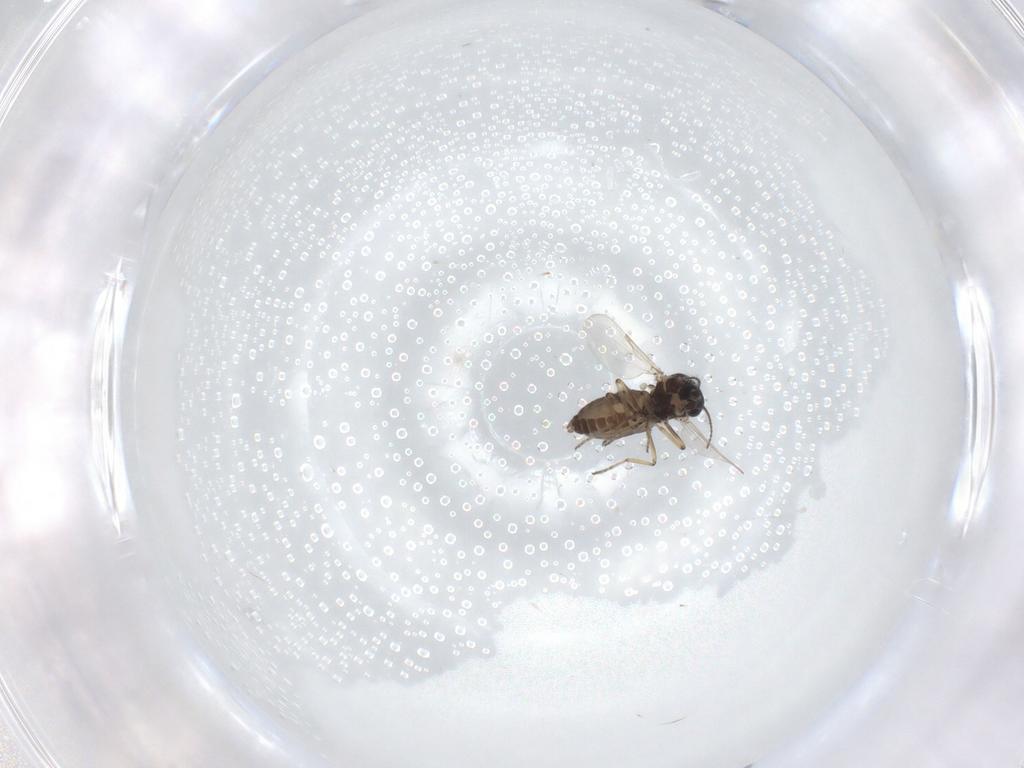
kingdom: Animalia
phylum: Arthropoda
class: Insecta
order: Diptera
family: Ceratopogonidae
